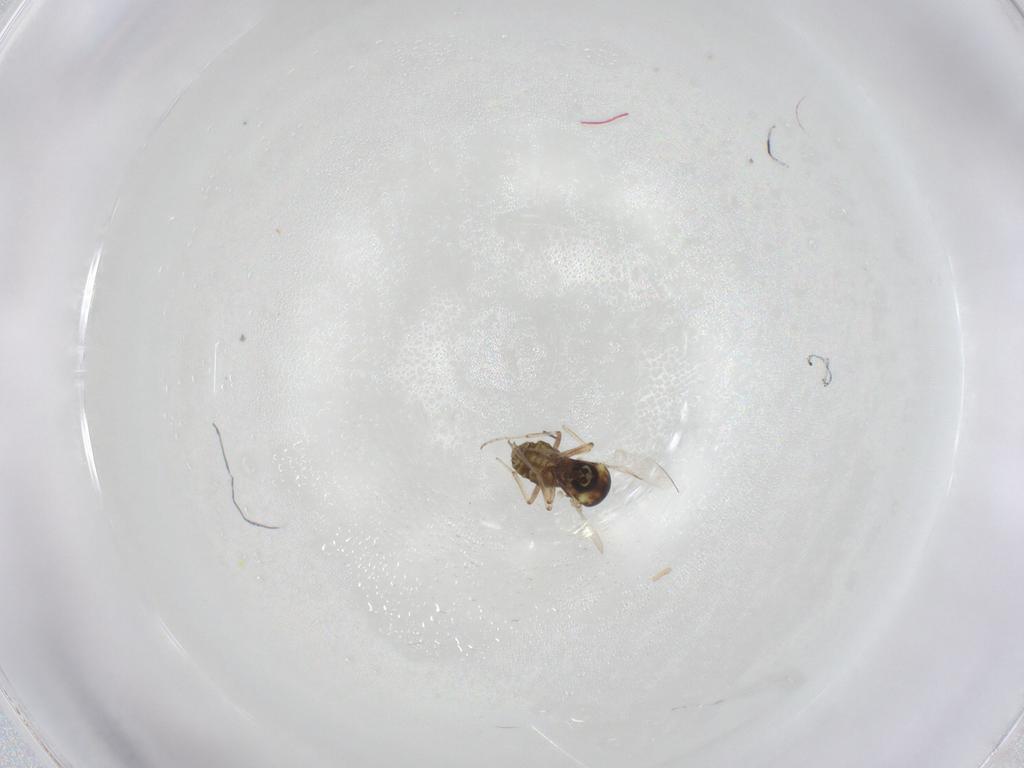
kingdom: Animalia
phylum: Arthropoda
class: Insecta
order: Diptera
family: Ceratopogonidae
